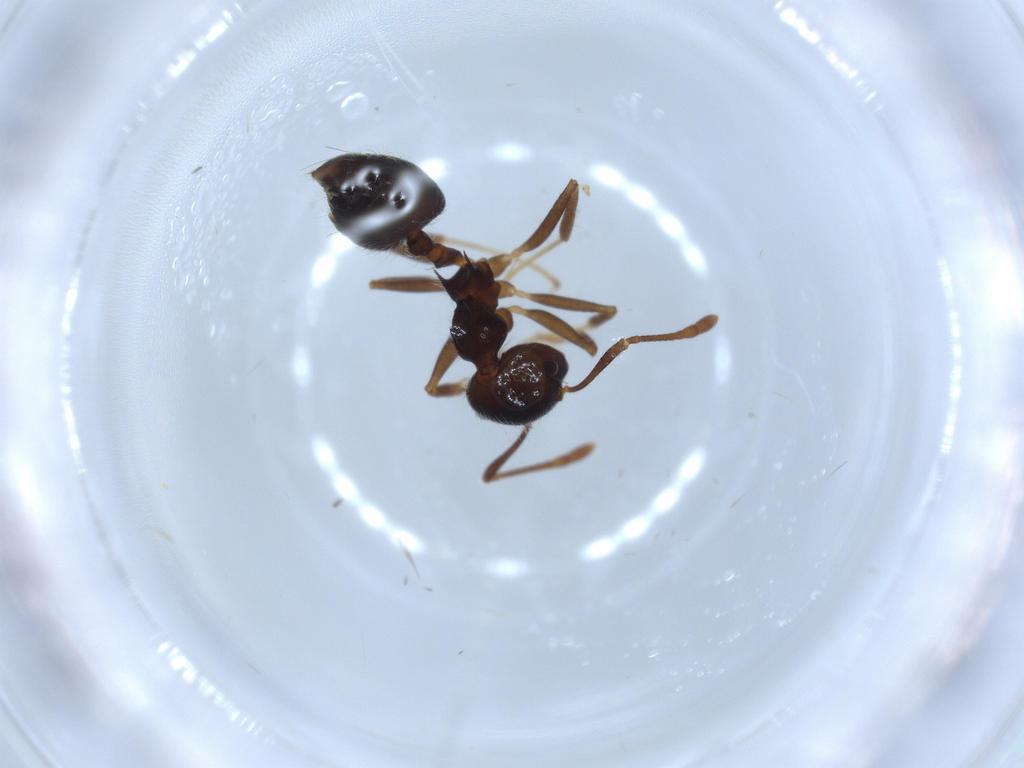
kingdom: Animalia
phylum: Arthropoda
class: Insecta
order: Hymenoptera
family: Formicidae
